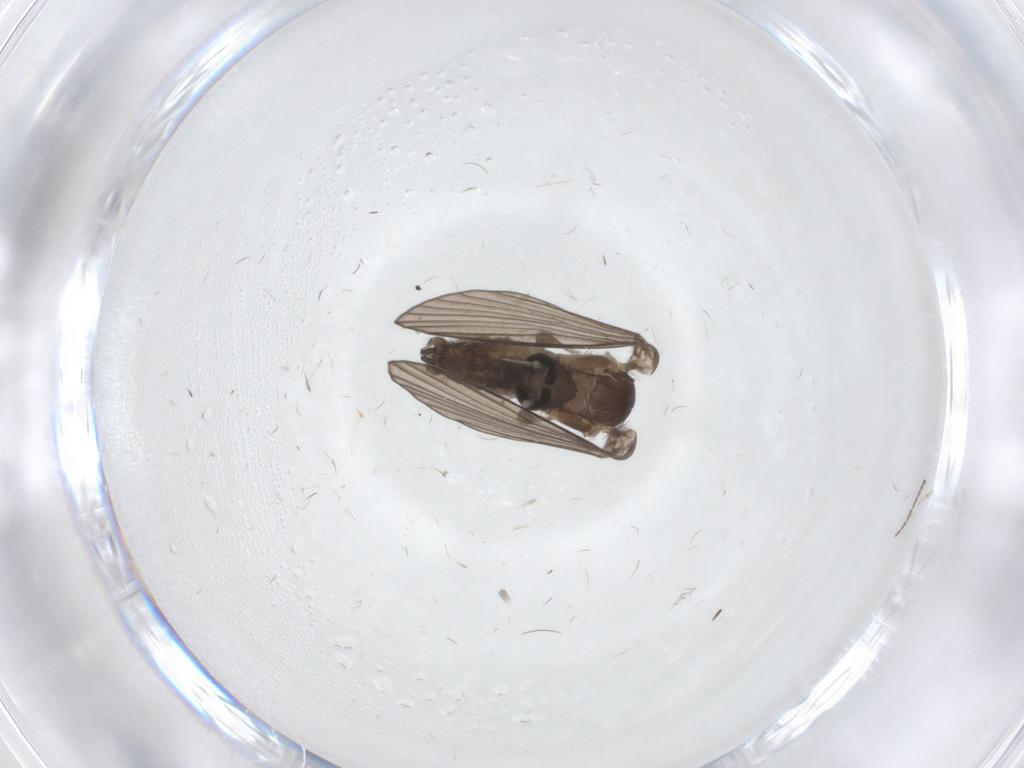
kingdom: Animalia
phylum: Arthropoda
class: Insecta
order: Diptera
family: Psychodidae
